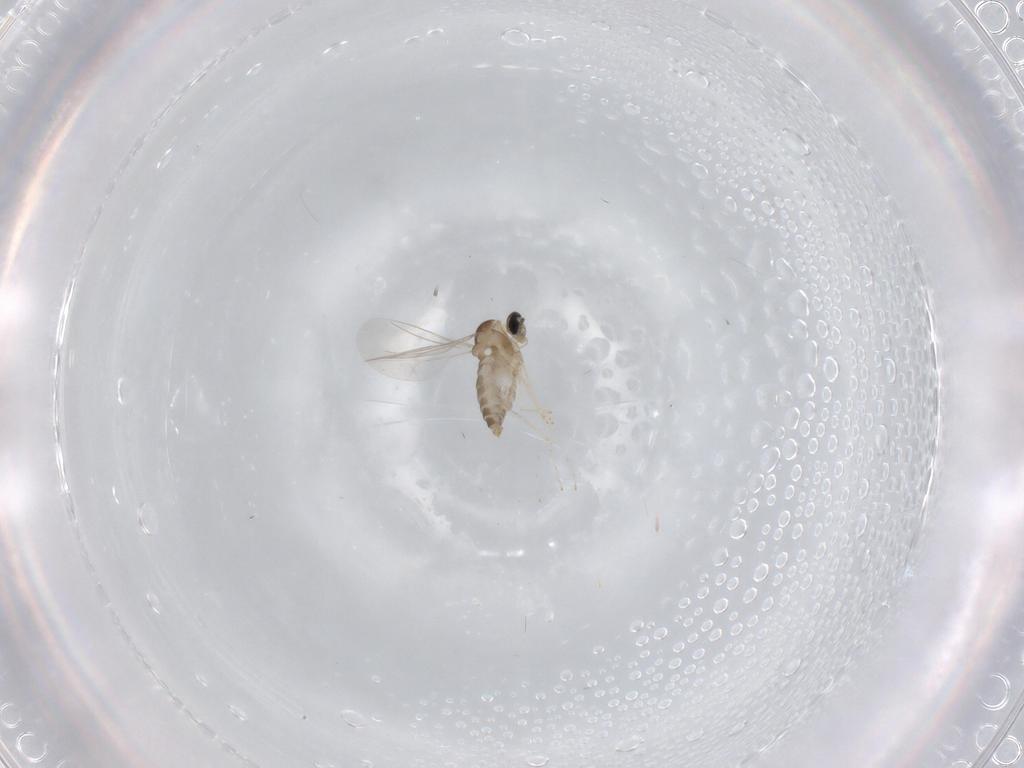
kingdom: Animalia
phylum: Arthropoda
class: Insecta
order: Diptera
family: Cecidomyiidae
